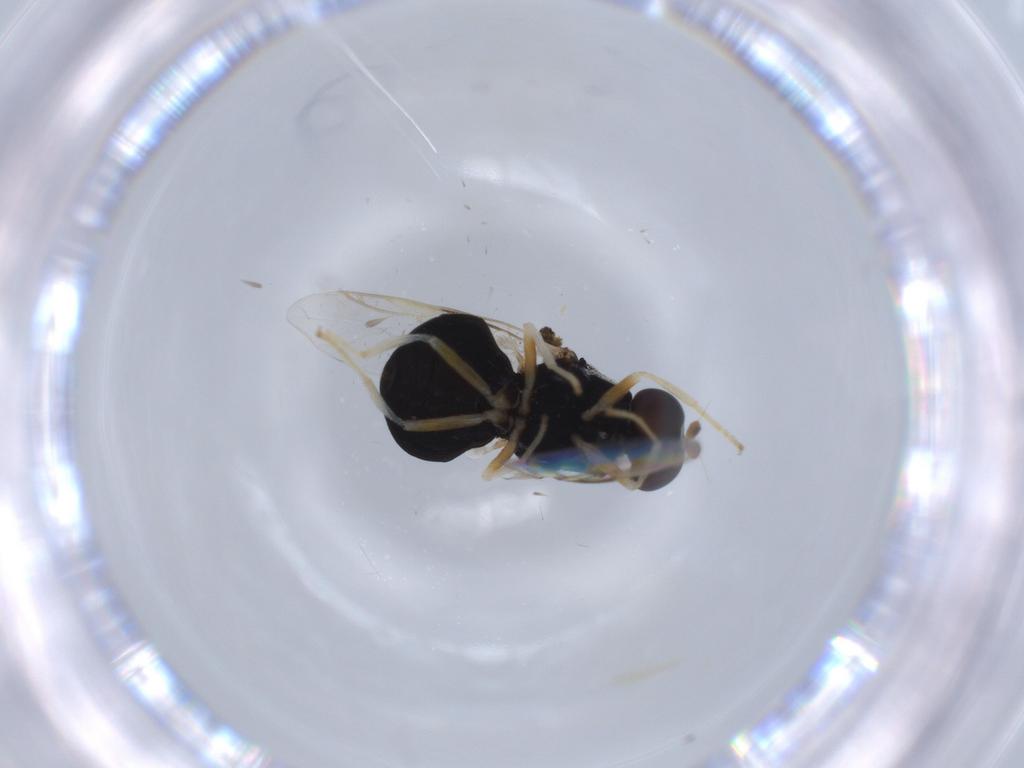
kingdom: Animalia
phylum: Arthropoda
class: Insecta
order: Diptera
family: Stratiomyidae
